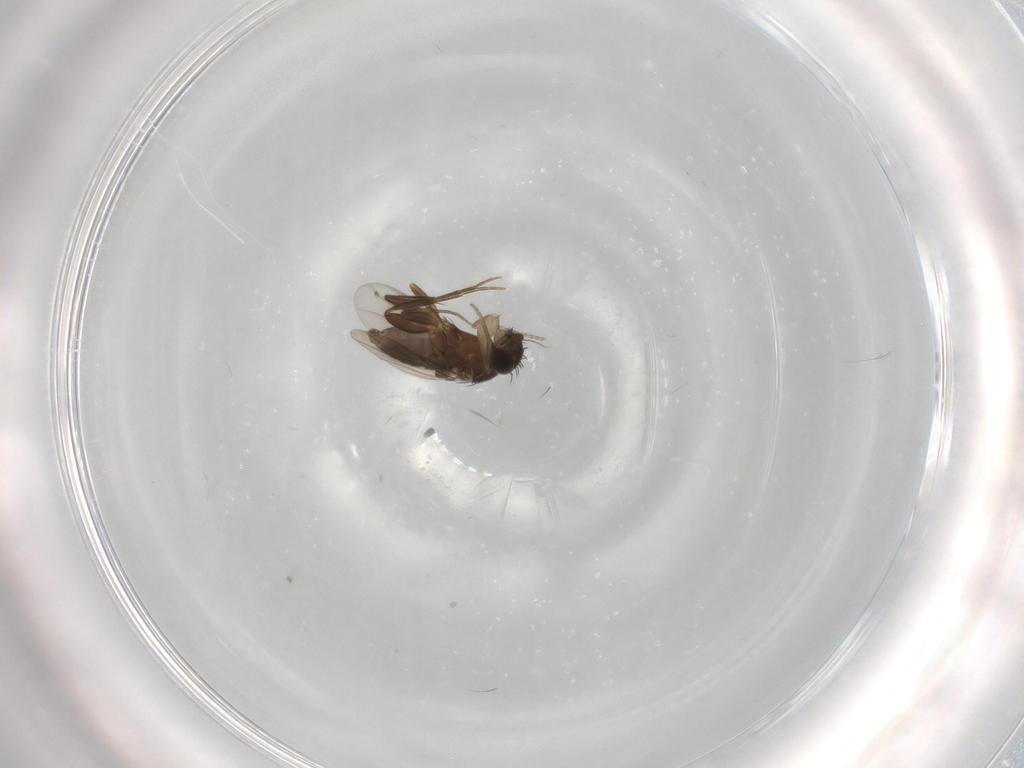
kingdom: Animalia
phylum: Arthropoda
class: Insecta
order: Diptera
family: Phoridae
